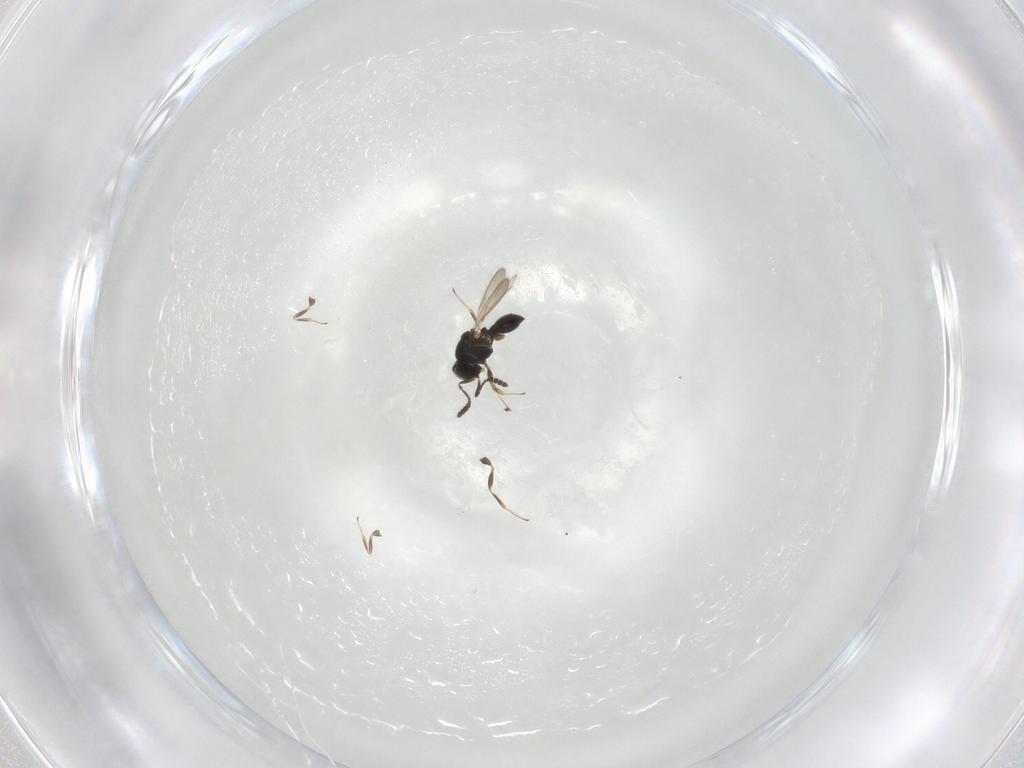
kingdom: Animalia
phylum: Arthropoda
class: Insecta
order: Hymenoptera
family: Scelionidae
